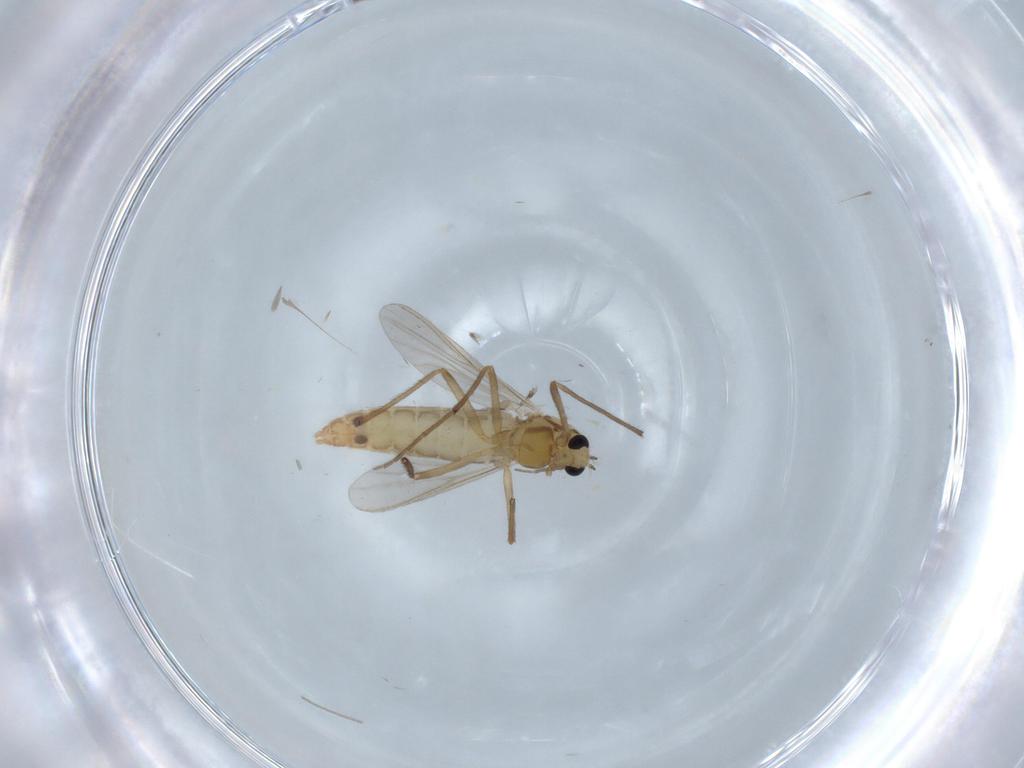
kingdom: Animalia
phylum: Arthropoda
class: Insecta
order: Diptera
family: Chironomidae
